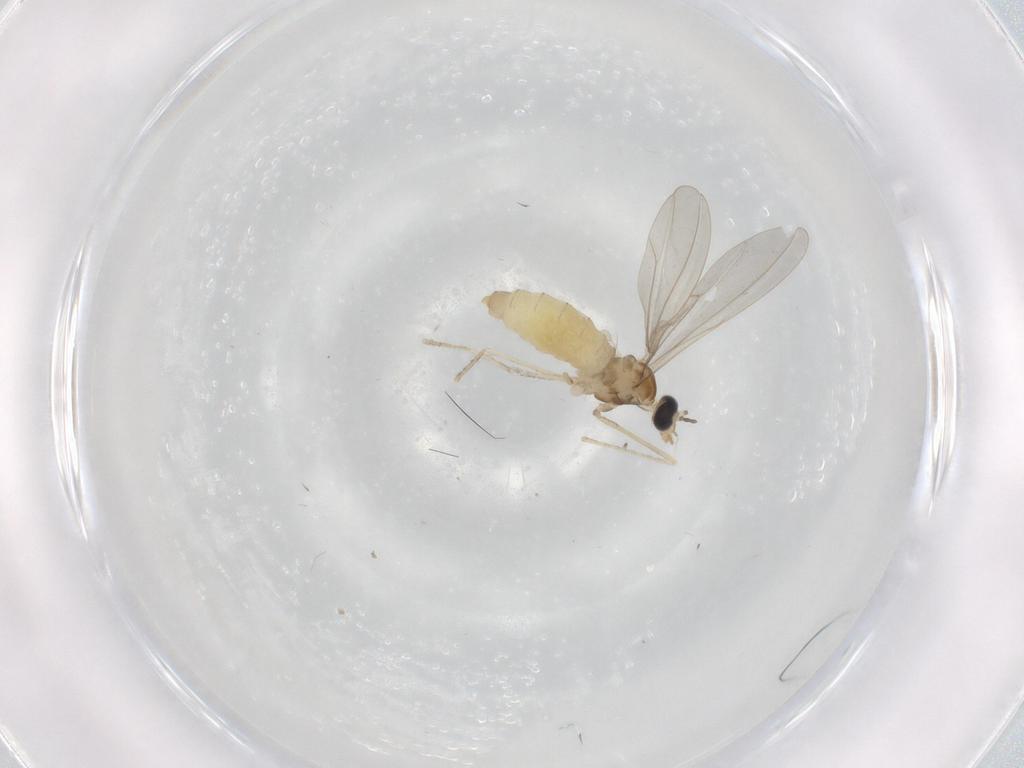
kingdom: Animalia
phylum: Arthropoda
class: Insecta
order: Diptera
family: Cecidomyiidae
